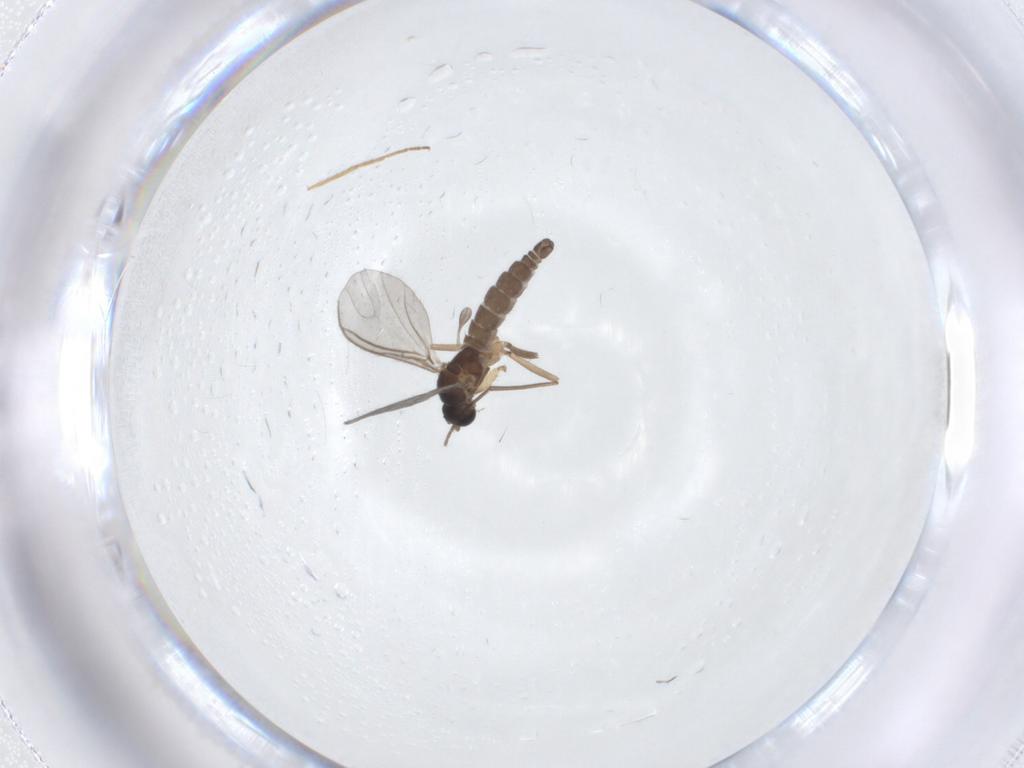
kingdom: Animalia
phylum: Arthropoda
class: Insecta
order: Diptera
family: Sciaridae
